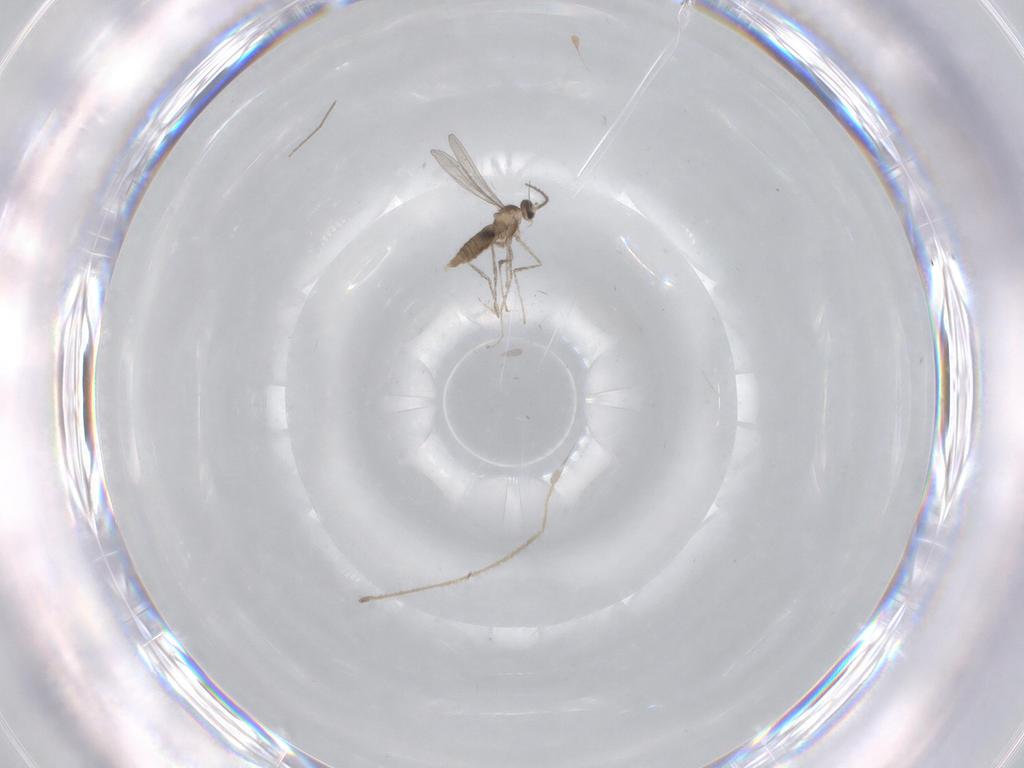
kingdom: Animalia
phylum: Arthropoda
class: Insecta
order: Diptera
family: Chironomidae
